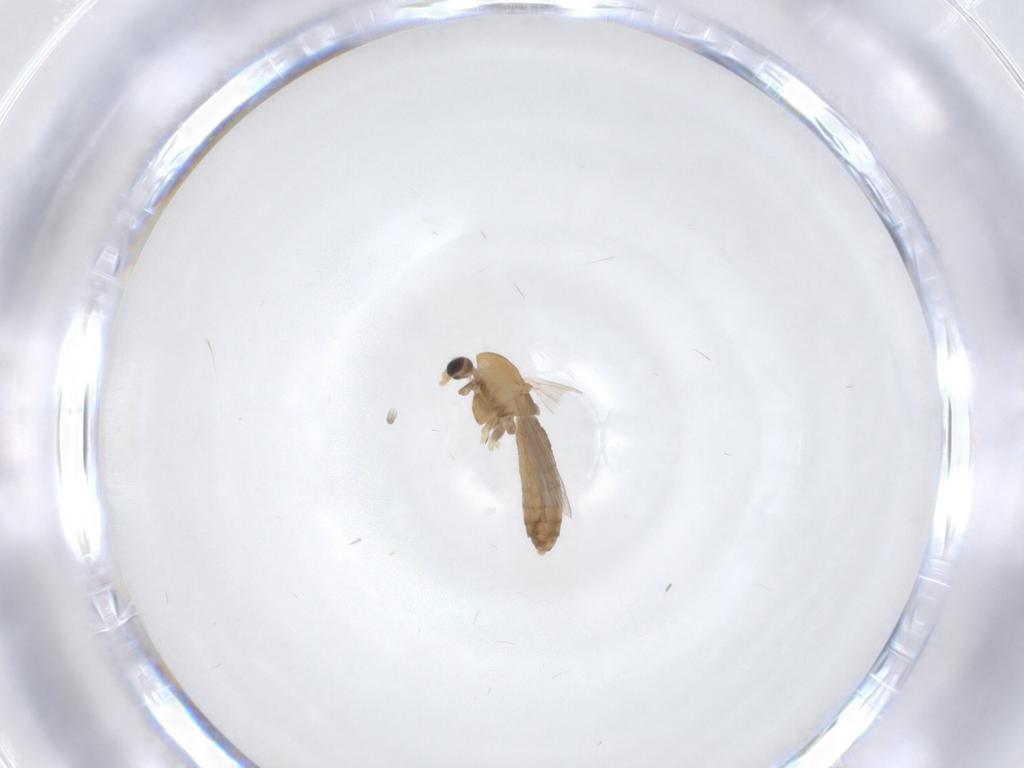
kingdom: Animalia
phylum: Arthropoda
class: Insecta
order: Diptera
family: Chironomidae
